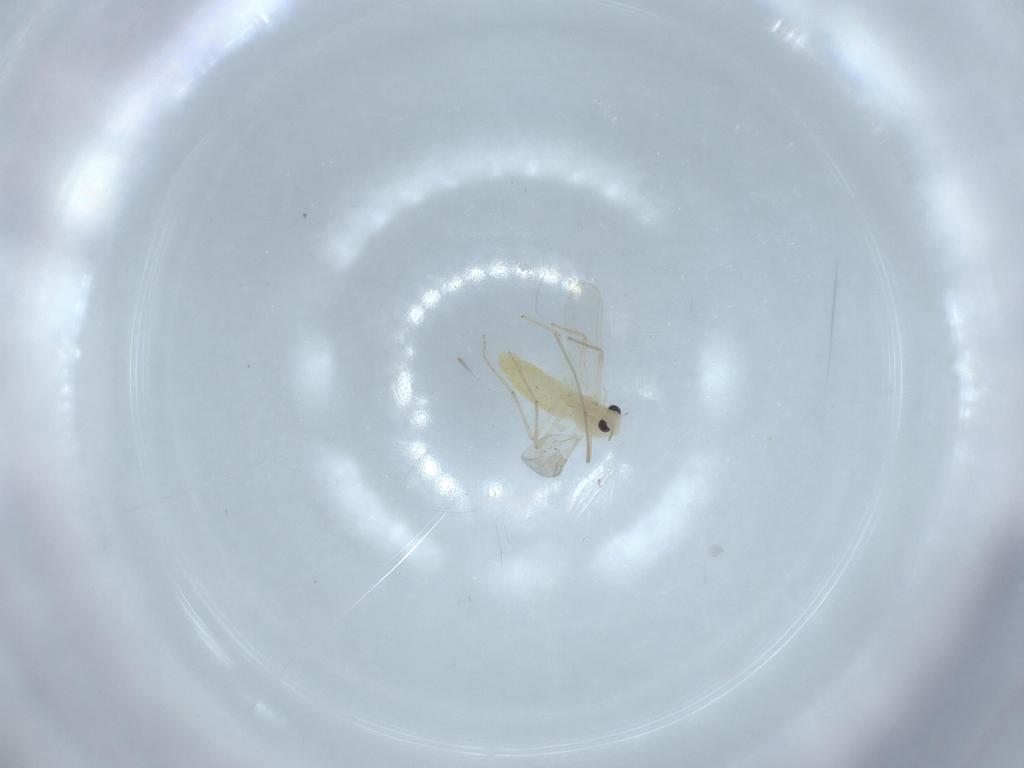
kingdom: Animalia
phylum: Arthropoda
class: Insecta
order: Diptera
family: Cecidomyiidae
